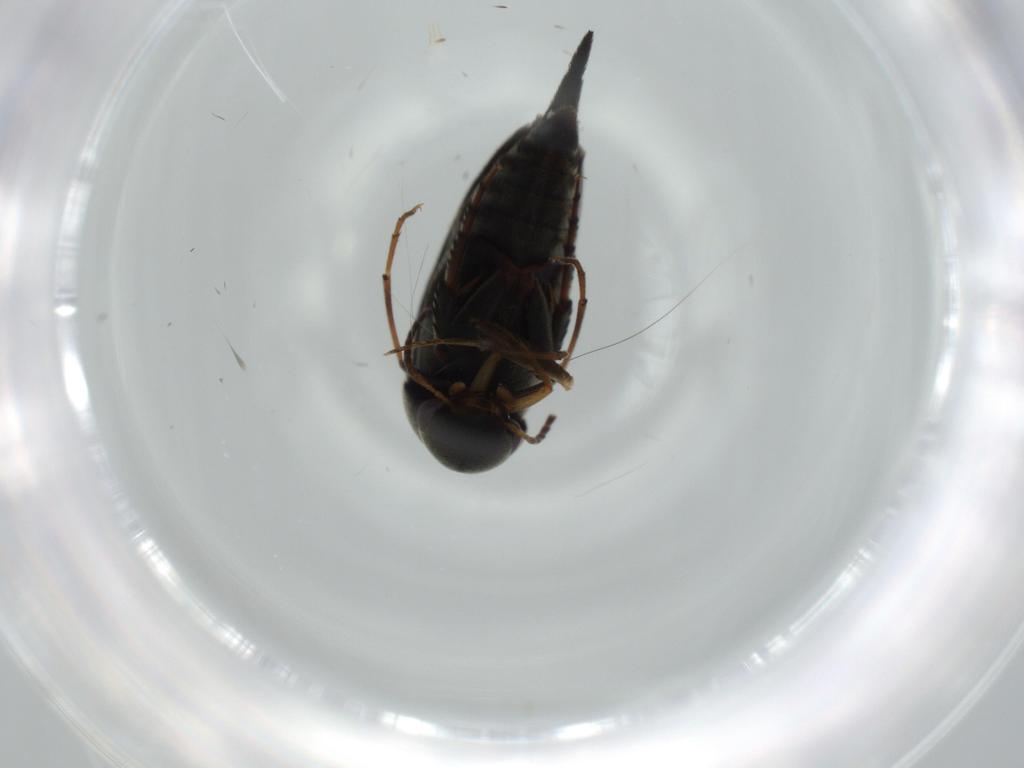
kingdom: Animalia
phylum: Arthropoda
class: Insecta
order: Coleoptera
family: Mordellidae
